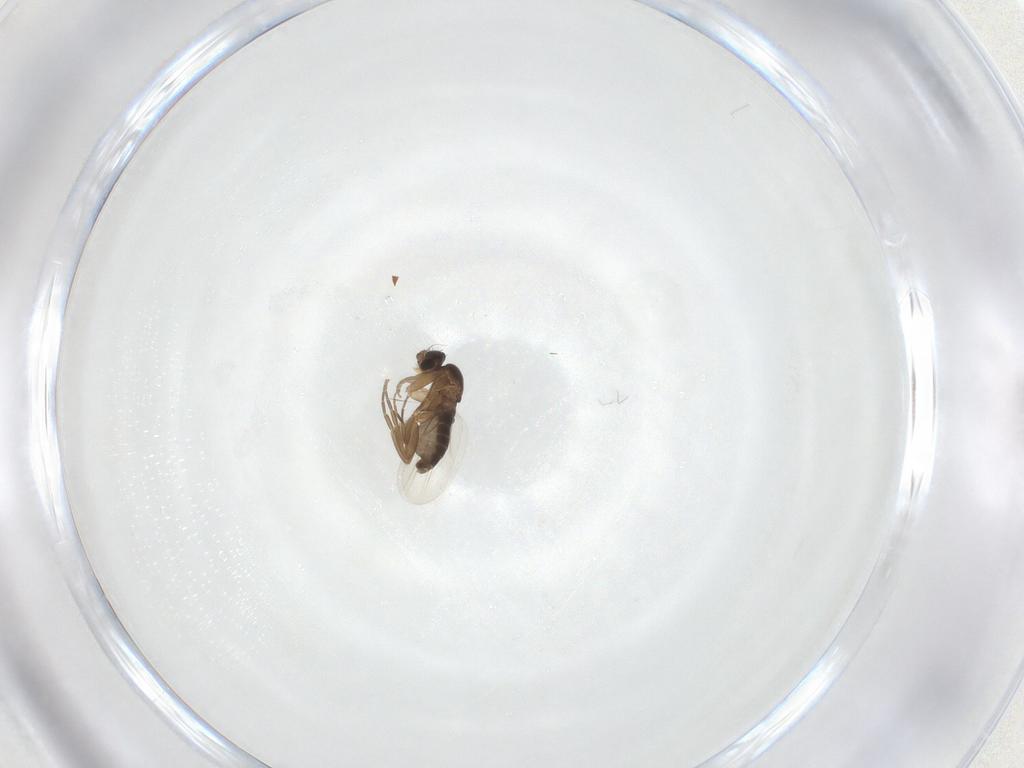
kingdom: Animalia
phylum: Arthropoda
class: Insecta
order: Diptera
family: Phoridae
